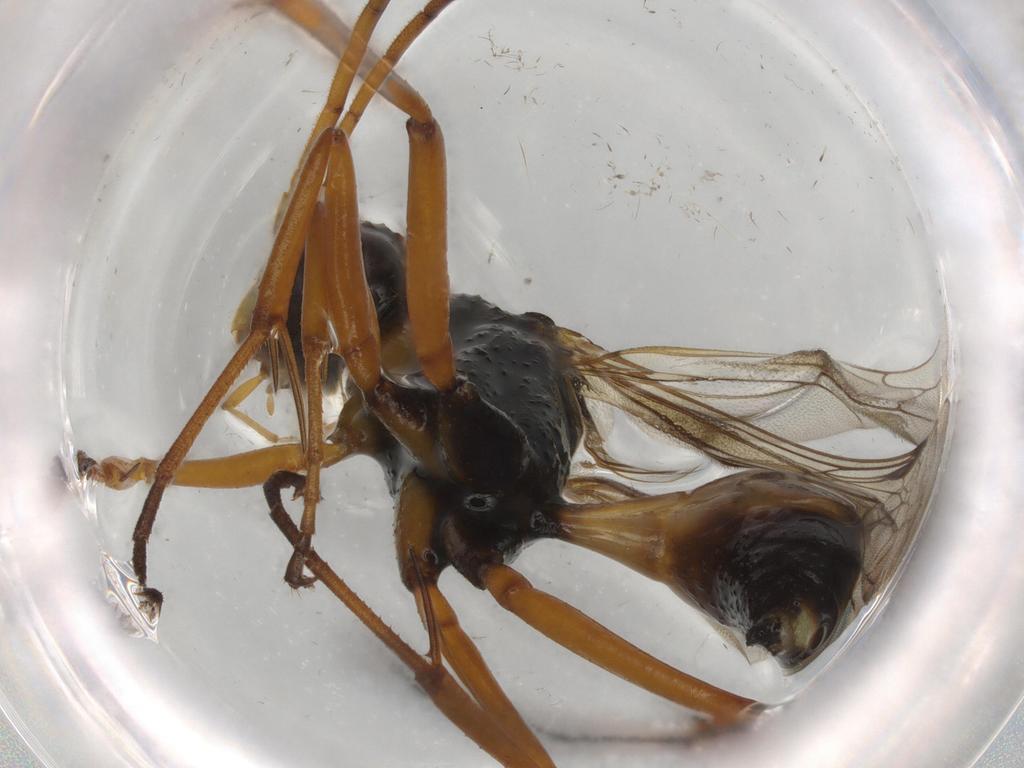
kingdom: Animalia
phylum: Arthropoda
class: Insecta
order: Hymenoptera
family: Bethylidae
